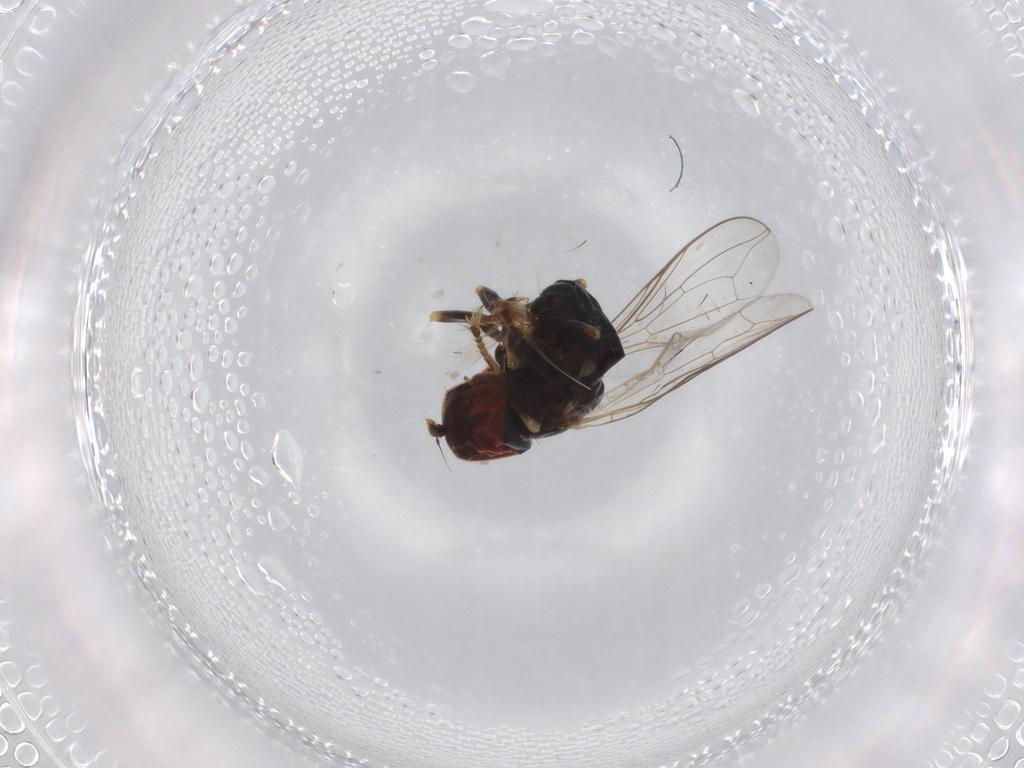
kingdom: Animalia
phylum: Arthropoda
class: Insecta
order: Diptera
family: Pipunculidae
